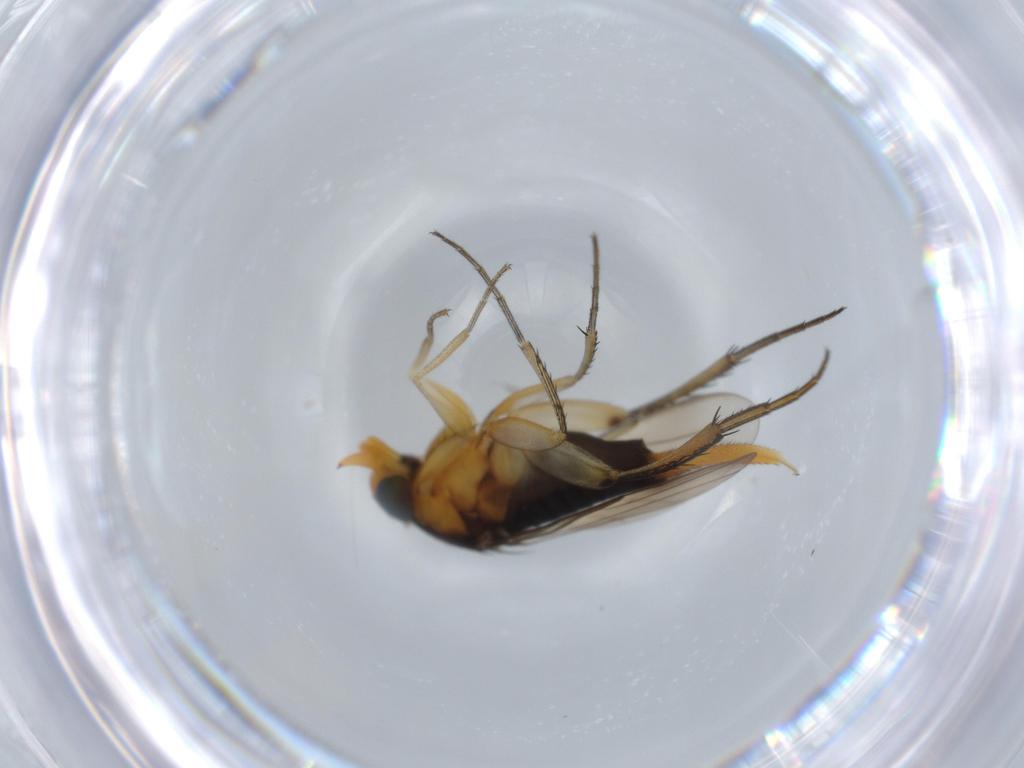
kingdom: Animalia
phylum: Arthropoda
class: Insecta
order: Diptera
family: Phoridae
